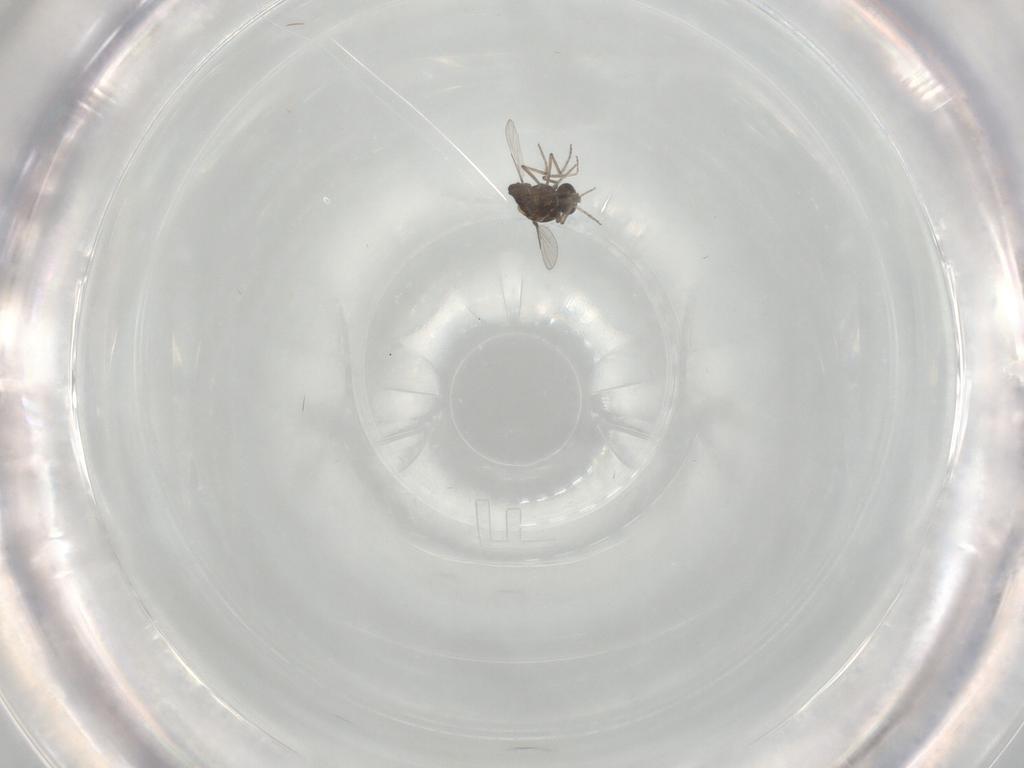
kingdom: Animalia
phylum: Arthropoda
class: Insecta
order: Diptera
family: Ceratopogonidae
